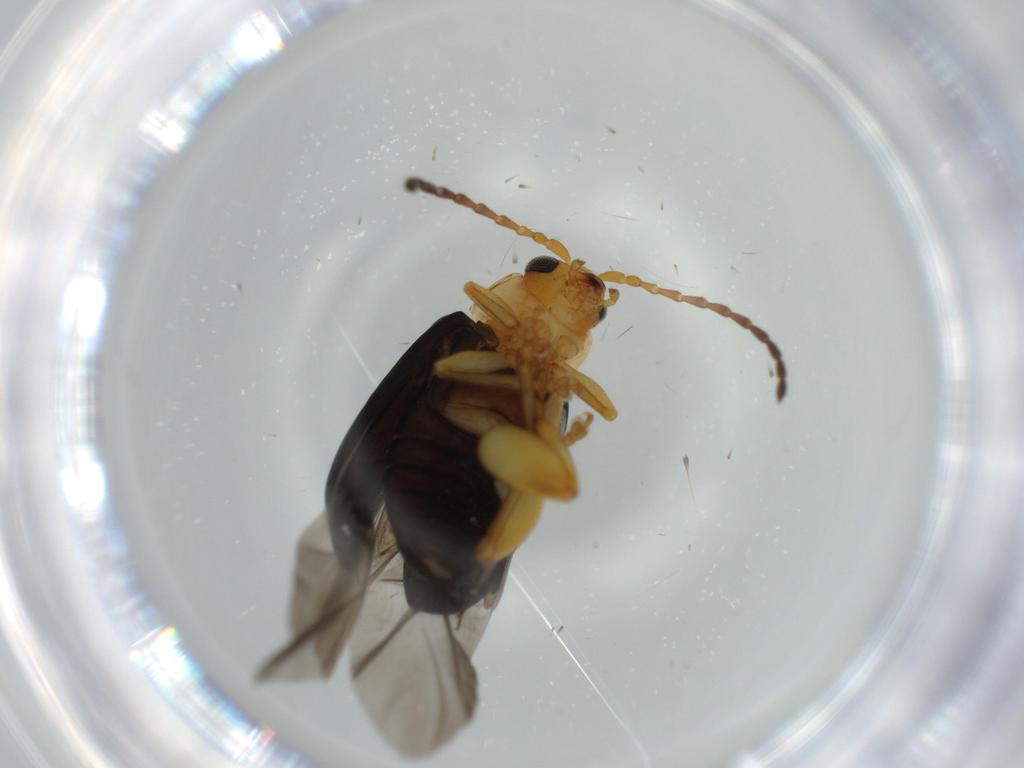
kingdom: Animalia
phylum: Arthropoda
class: Insecta
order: Coleoptera
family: Chrysomelidae
